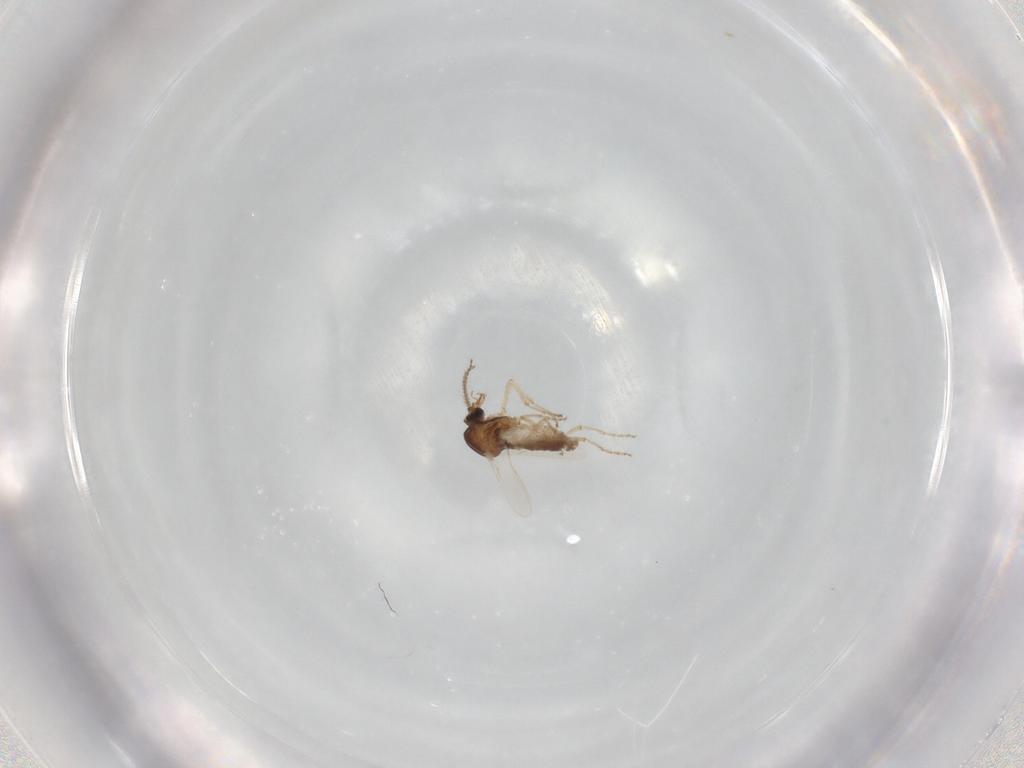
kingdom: Animalia
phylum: Arthropoda
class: Insecta
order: Diptera
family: Ceratopogonidae
